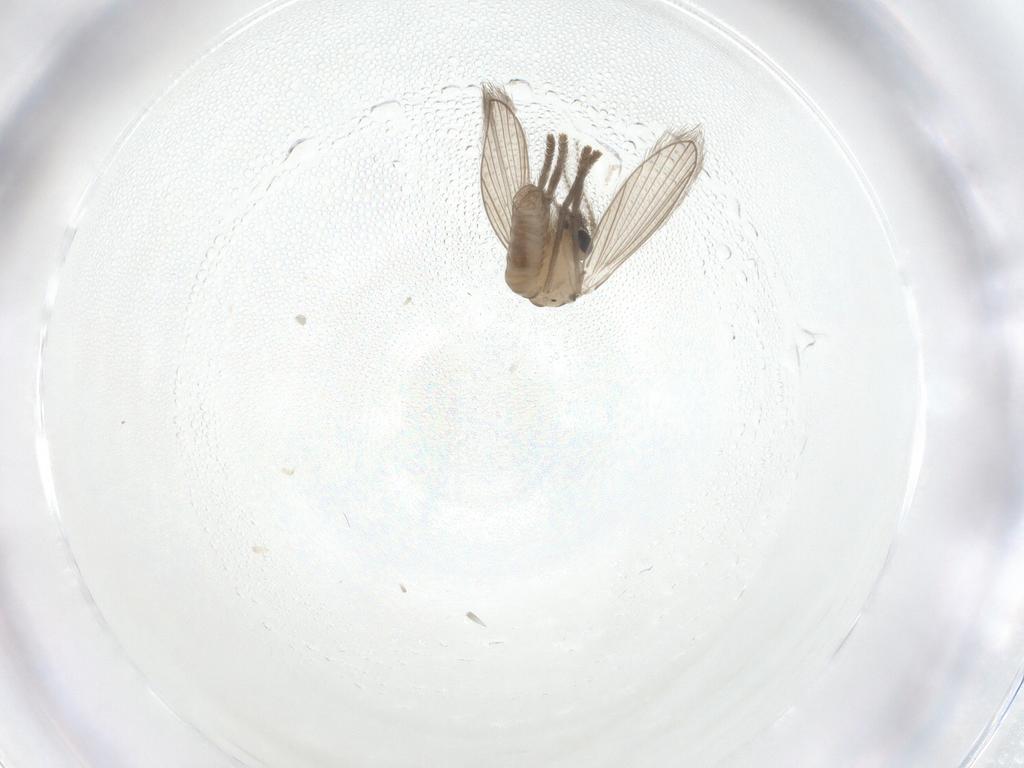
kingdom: Animalia
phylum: Arthropoda
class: Insecta
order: Diptera
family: Psychodidae
